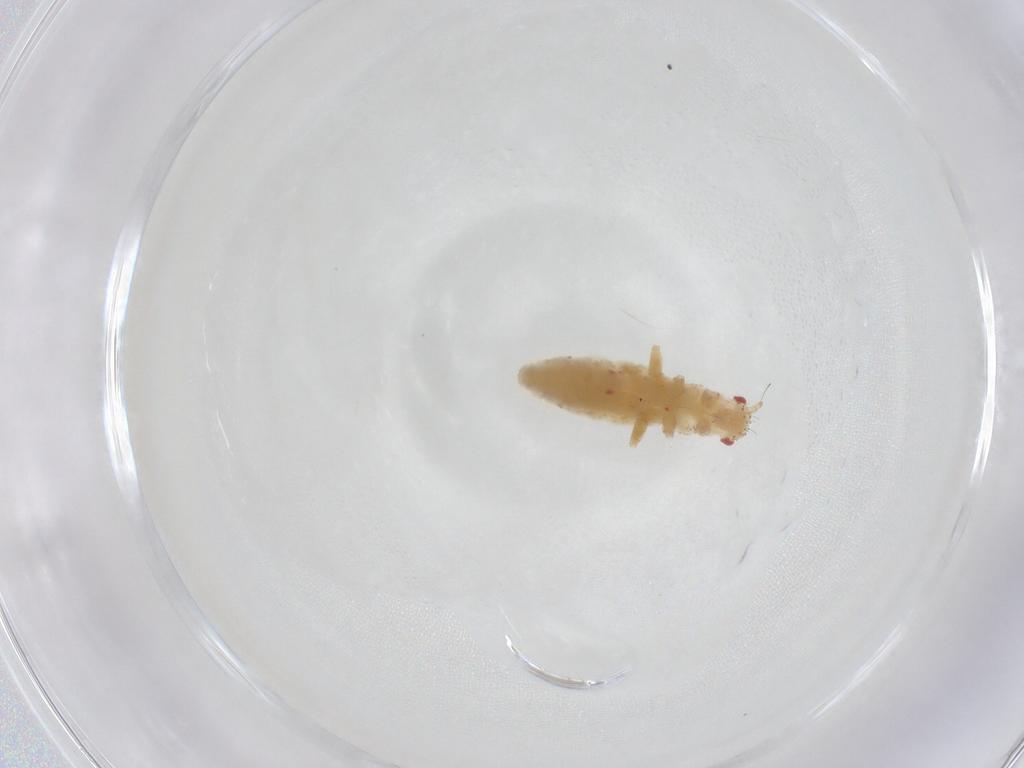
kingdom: Animalia
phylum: Arthropoda
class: Insecta
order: Hemiptera
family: Aphididae
